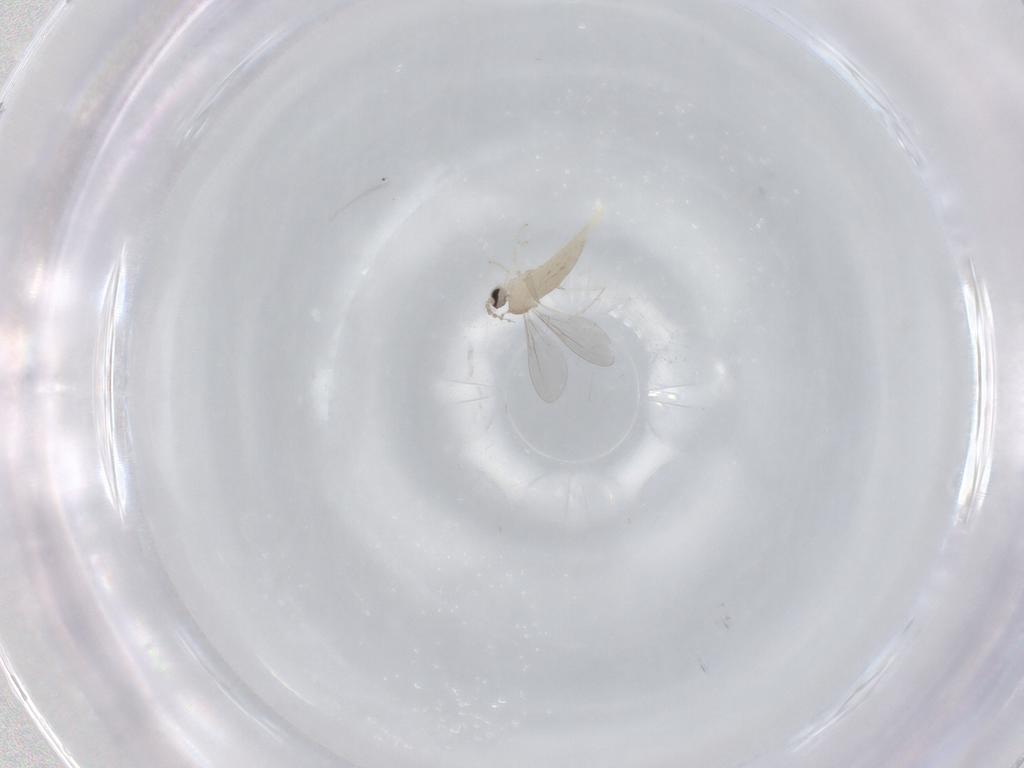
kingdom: Animalia
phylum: Arthropoda
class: Insecta
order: Diptera
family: Cecidomyiidae
